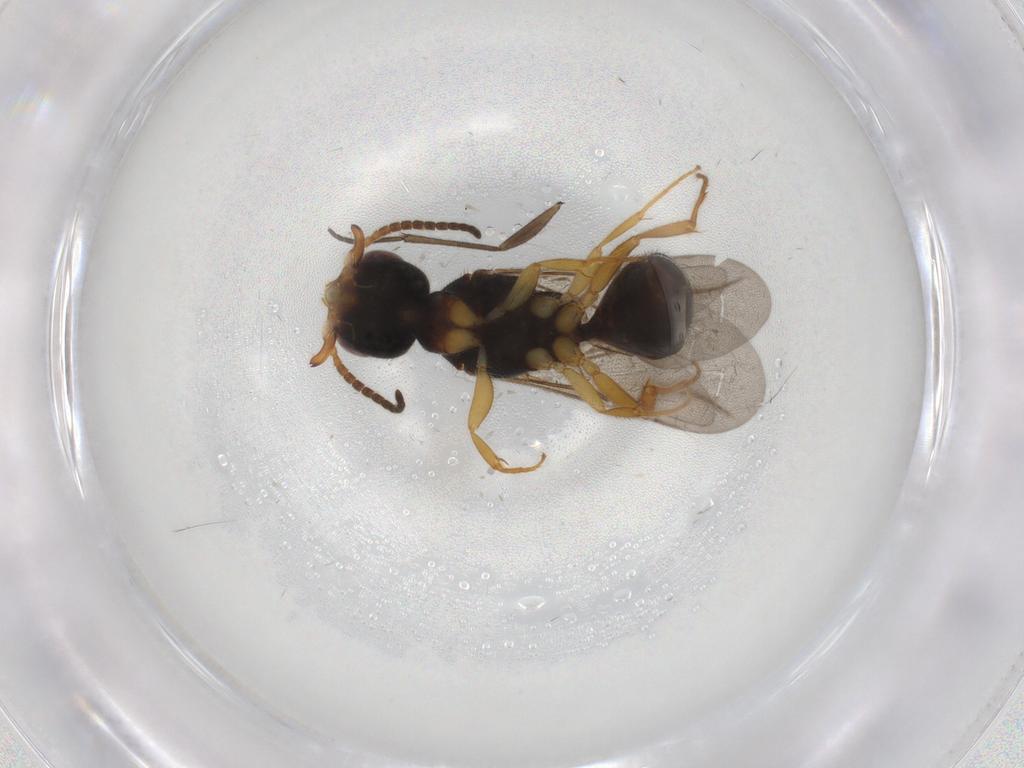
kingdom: Animalia
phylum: Arthropoda
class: Insecta
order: Hymenoptera
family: Bethylidae
